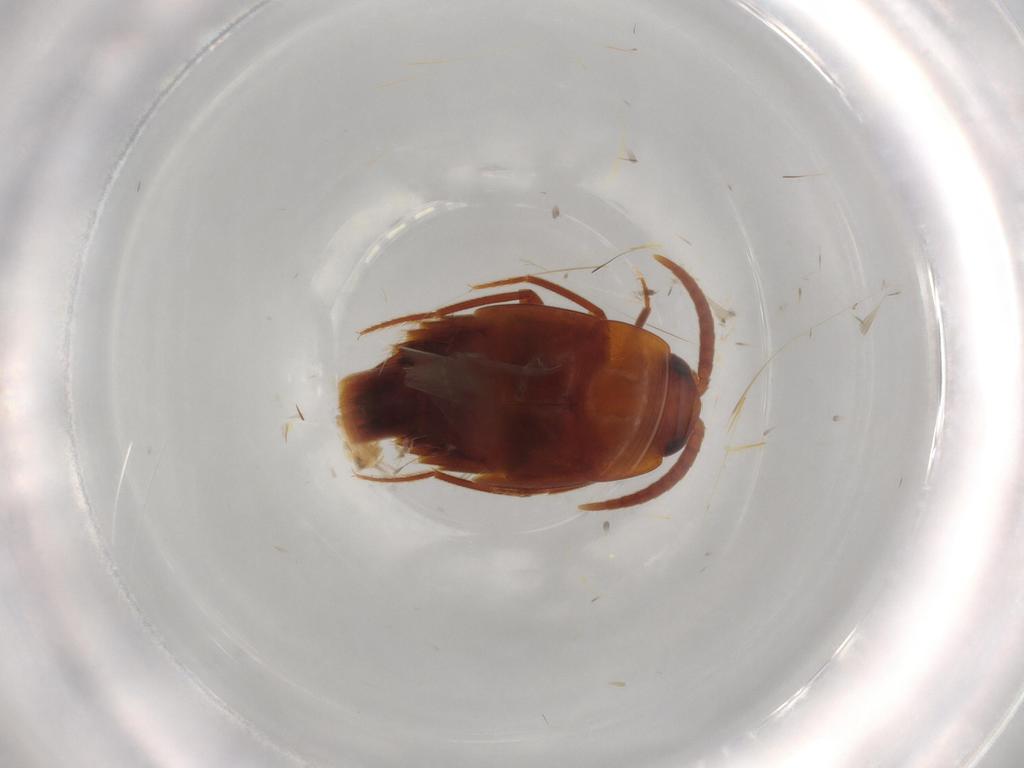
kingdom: Animalia
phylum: Arthropoda
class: Insecta
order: Coleoptera
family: Staphylinidae
